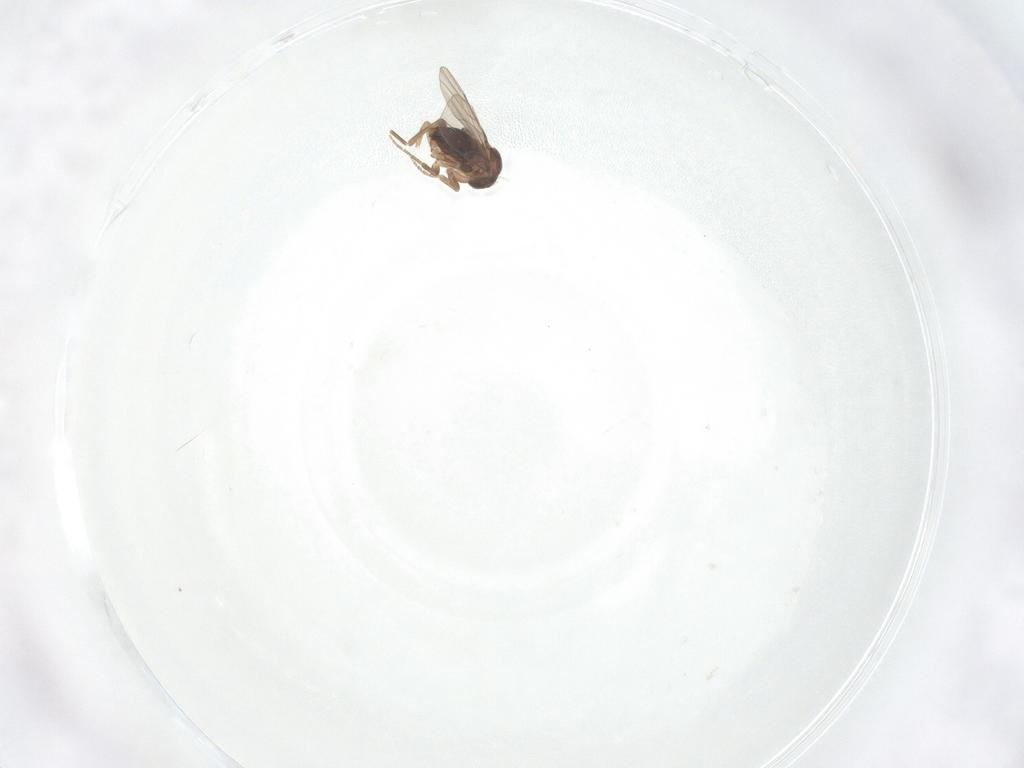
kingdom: Animalia
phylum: Arthropoda
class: Insecta
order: Diptera
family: Phoridae
